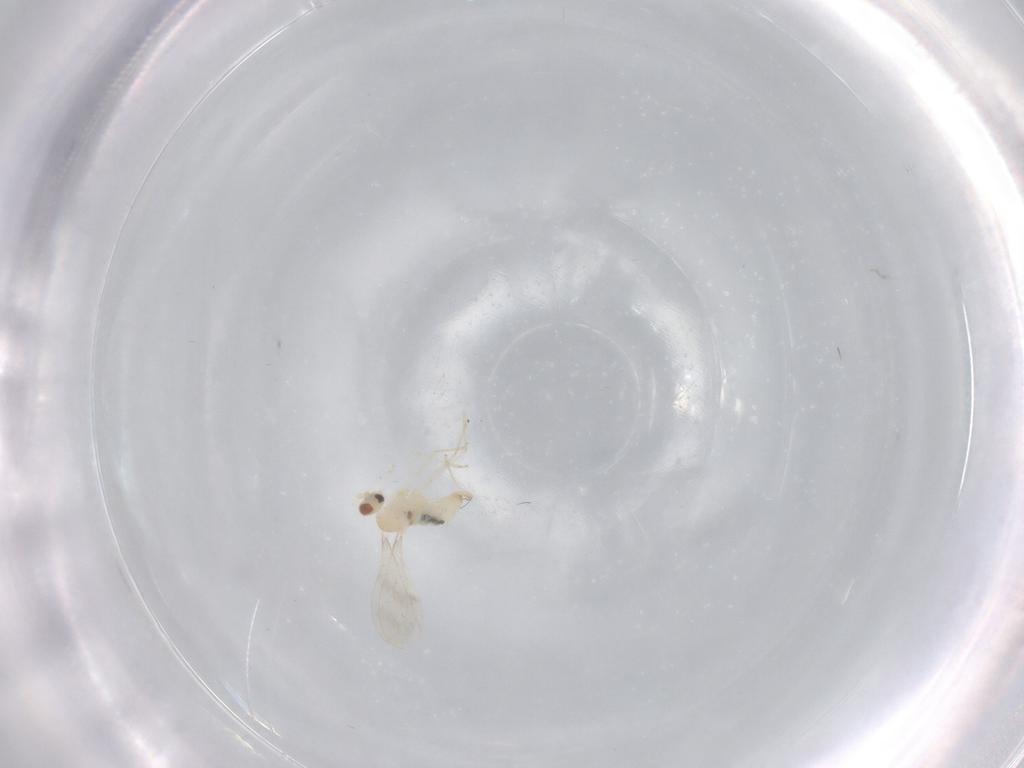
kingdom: Animalia
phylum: Arthropoda
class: Insecta
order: Diptera
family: Cecidomyiidae
